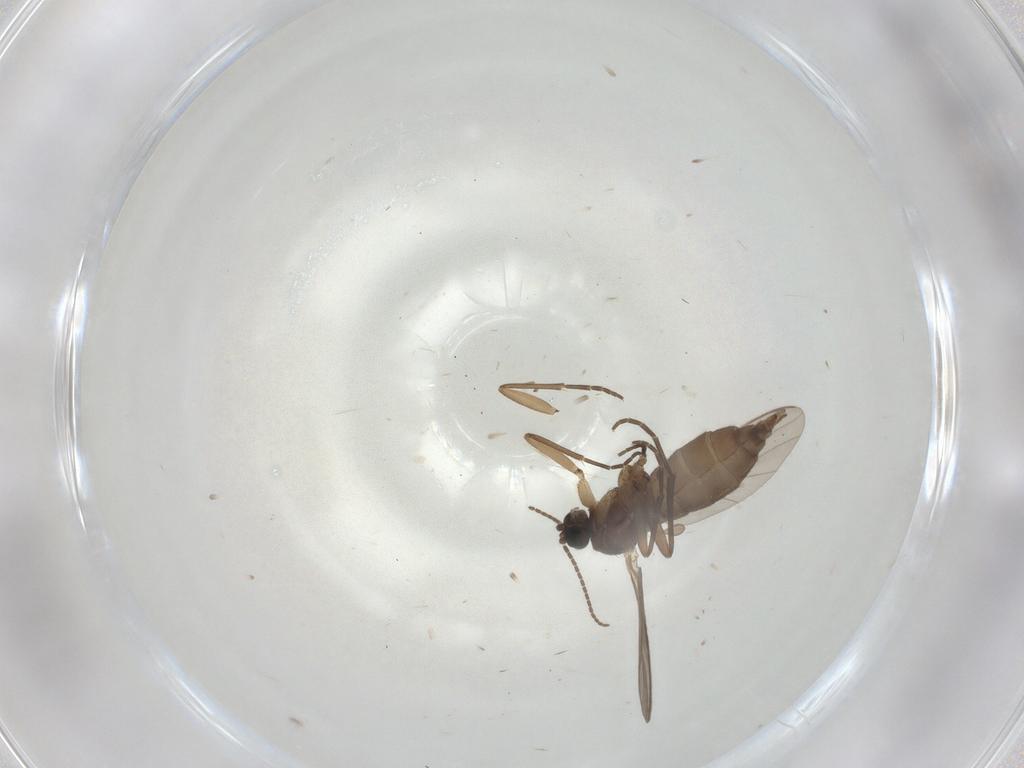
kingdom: Animalia
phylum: Arthropoda
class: Insecta
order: Diptera
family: Sciaridae
